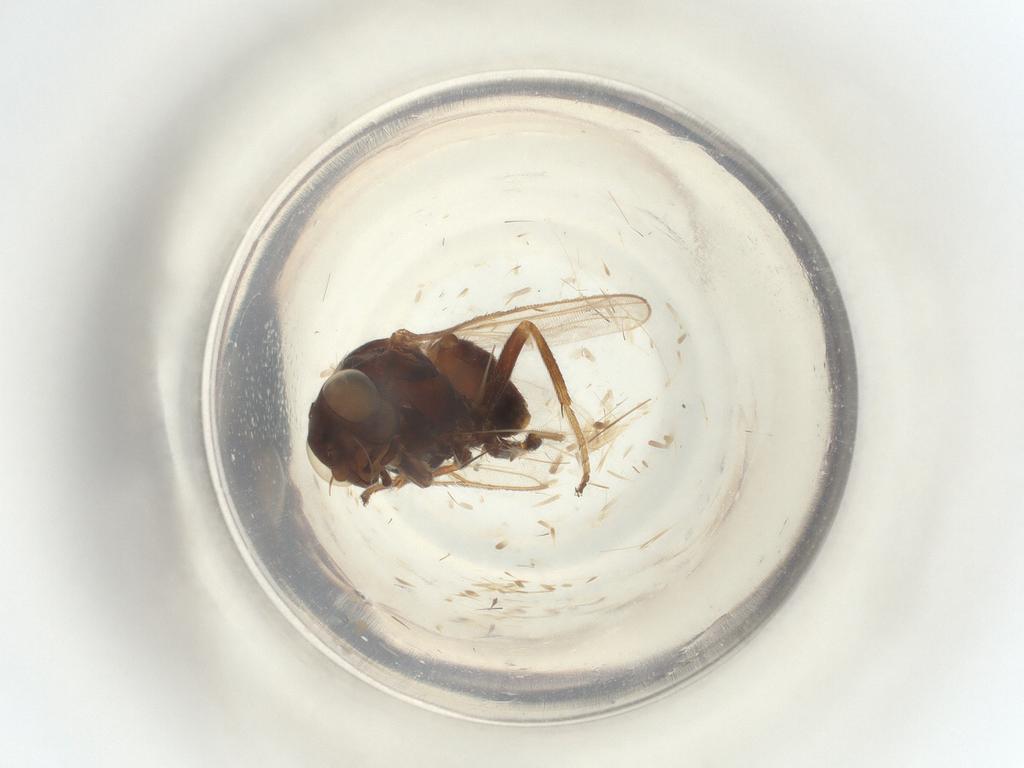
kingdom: Animalia
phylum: Arthropoda
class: Insecta
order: Diptera
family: Chloropidae
